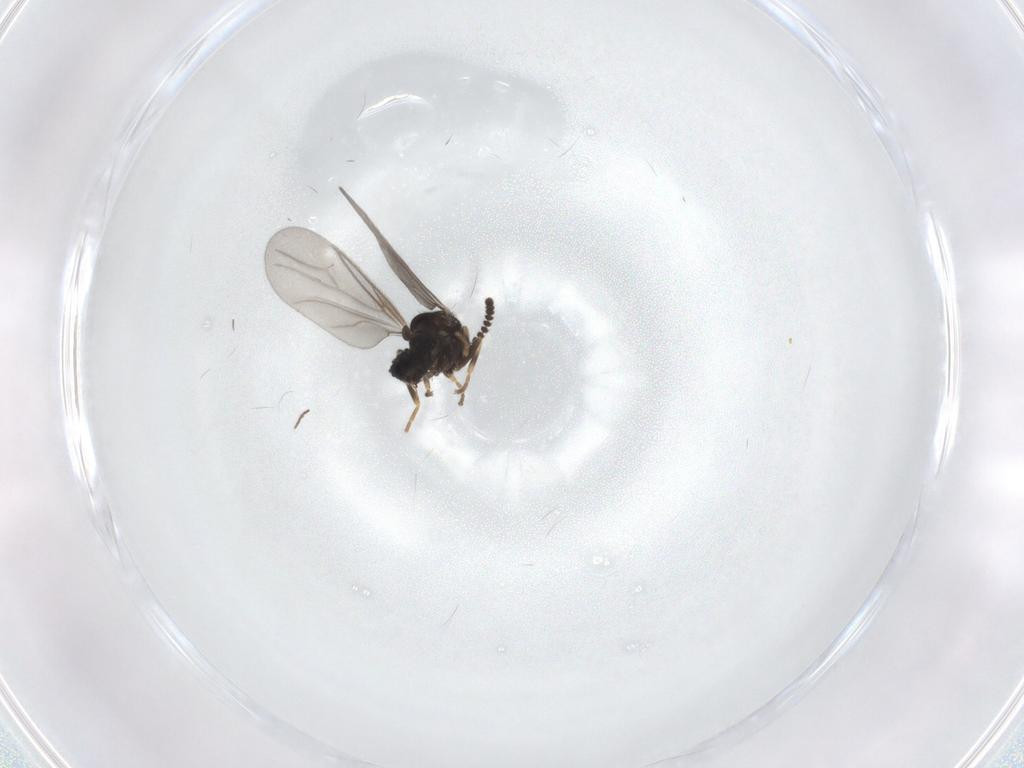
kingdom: Animalia
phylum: Arthropoda
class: Insecta
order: Diptera
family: Scatopsidae
